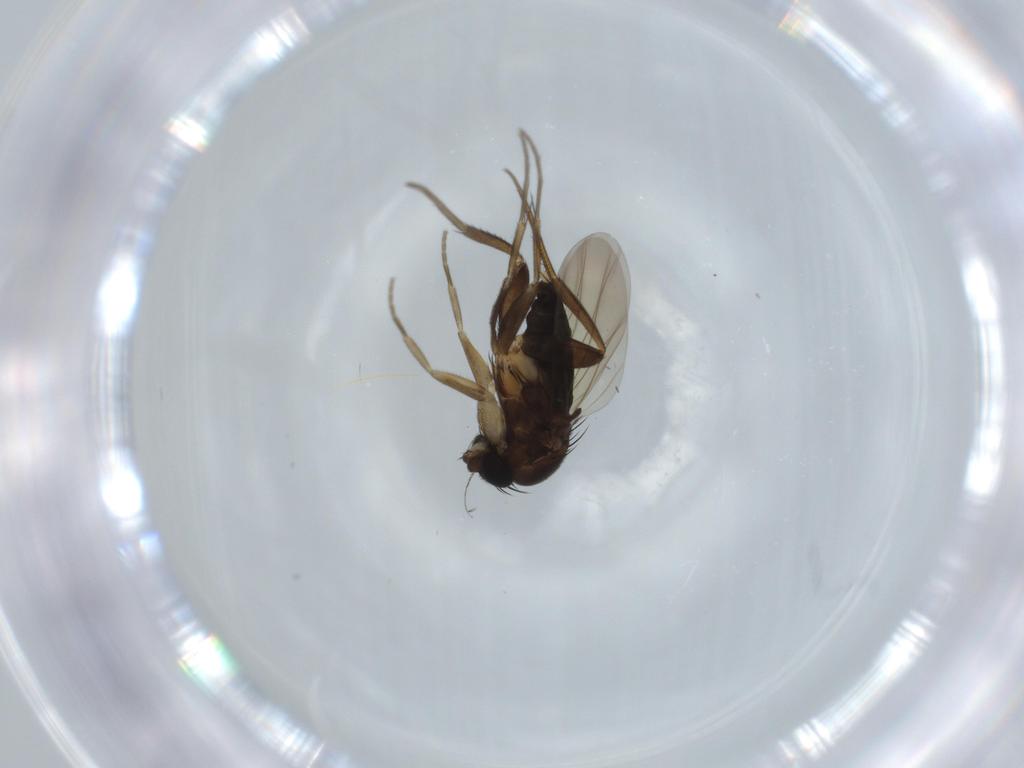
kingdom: Animalia
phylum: Arthropoda
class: Insecta
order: Diptera
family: Phoridae
